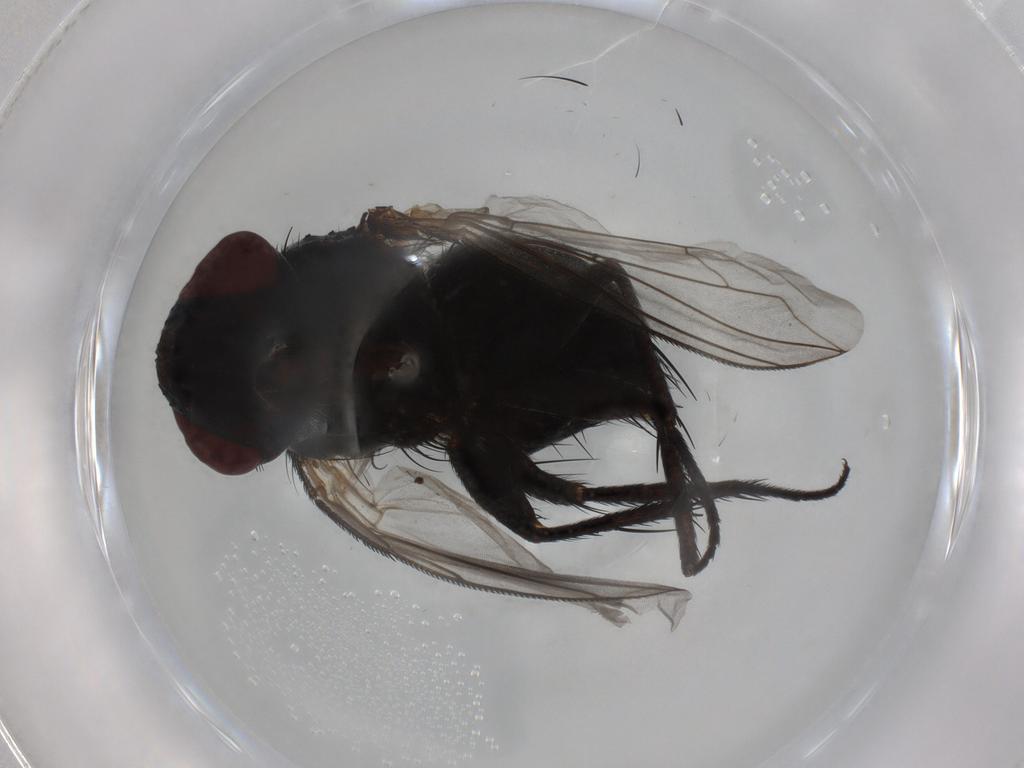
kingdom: Animalia
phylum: Arthropoda
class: Insecta
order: Diptera
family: Tachinidae
